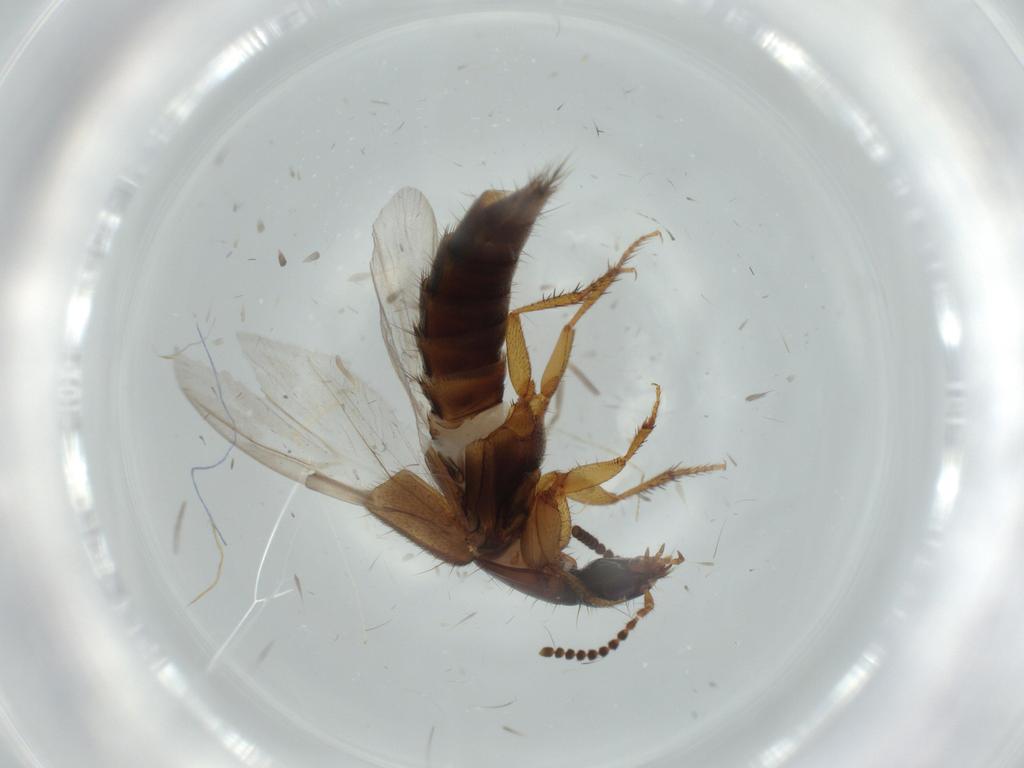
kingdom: Animalia
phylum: Arthropoda
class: Insecta
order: Coleoptera
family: Staphylinidae
